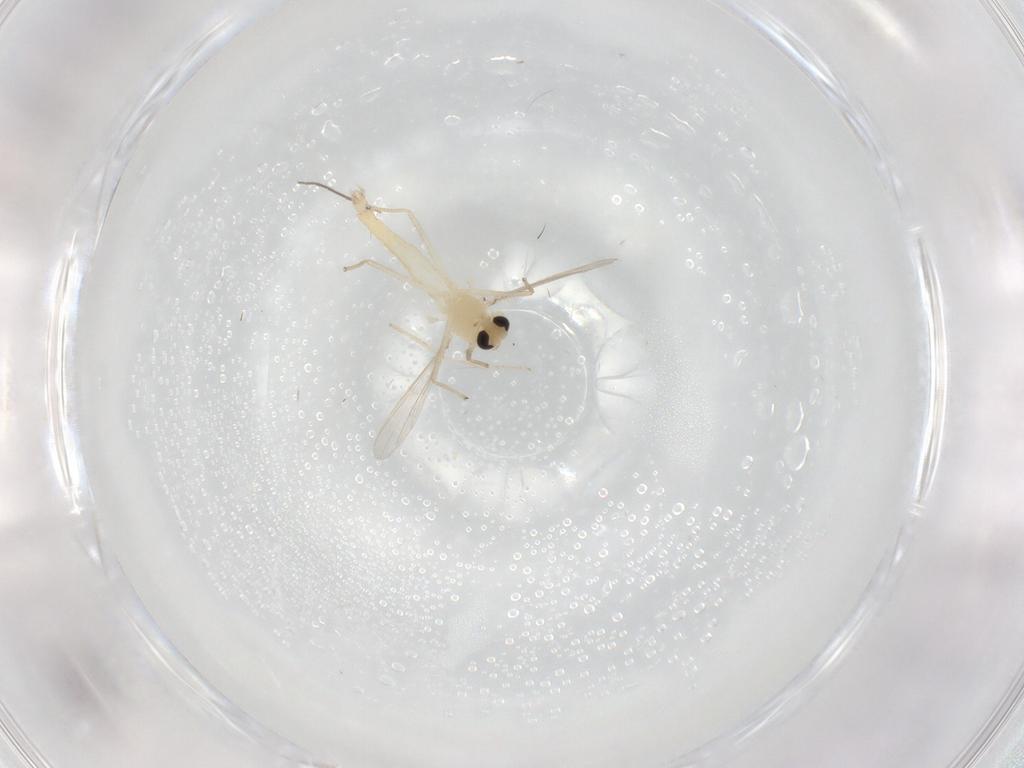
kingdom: Animalia
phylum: Arthropoda
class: Insecta
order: Diptera
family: Chironomidae
